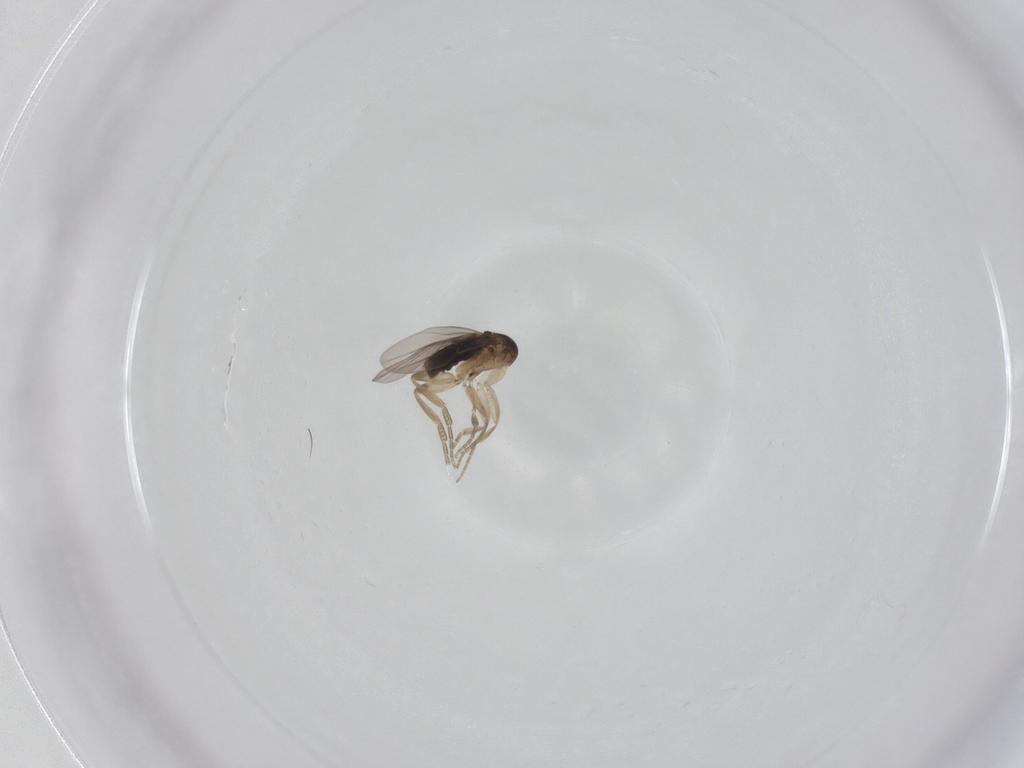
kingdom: Animalia
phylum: Arthropoda
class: Insecta
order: Diptera
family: Phoridae
